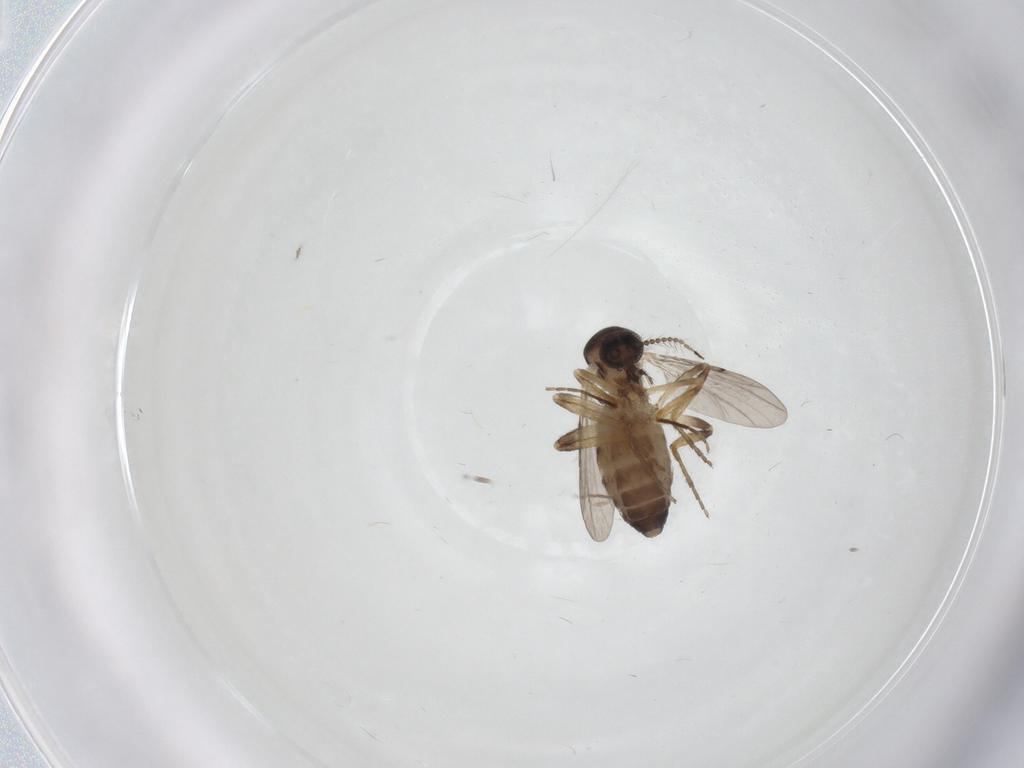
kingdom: Animalia
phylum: Arthropoda
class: Insecta
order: Diptera
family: Ceratopogonidae
